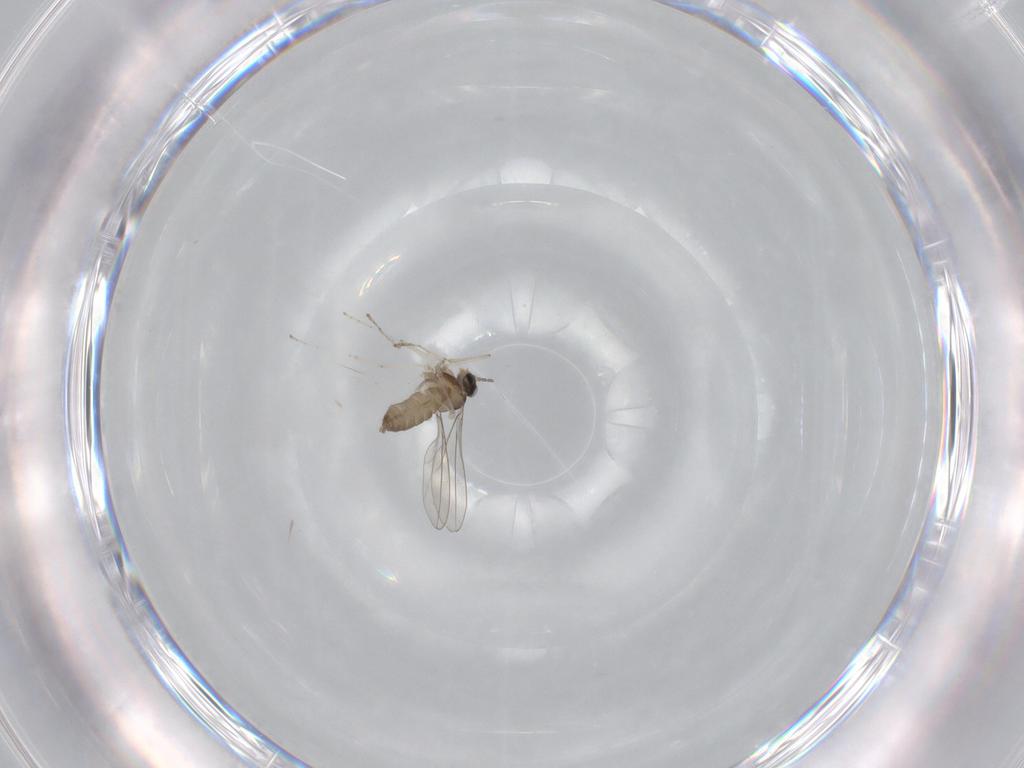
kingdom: Animalia
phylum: Arthropoda
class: Insecta
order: Diptera
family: Cecidomyiidae
